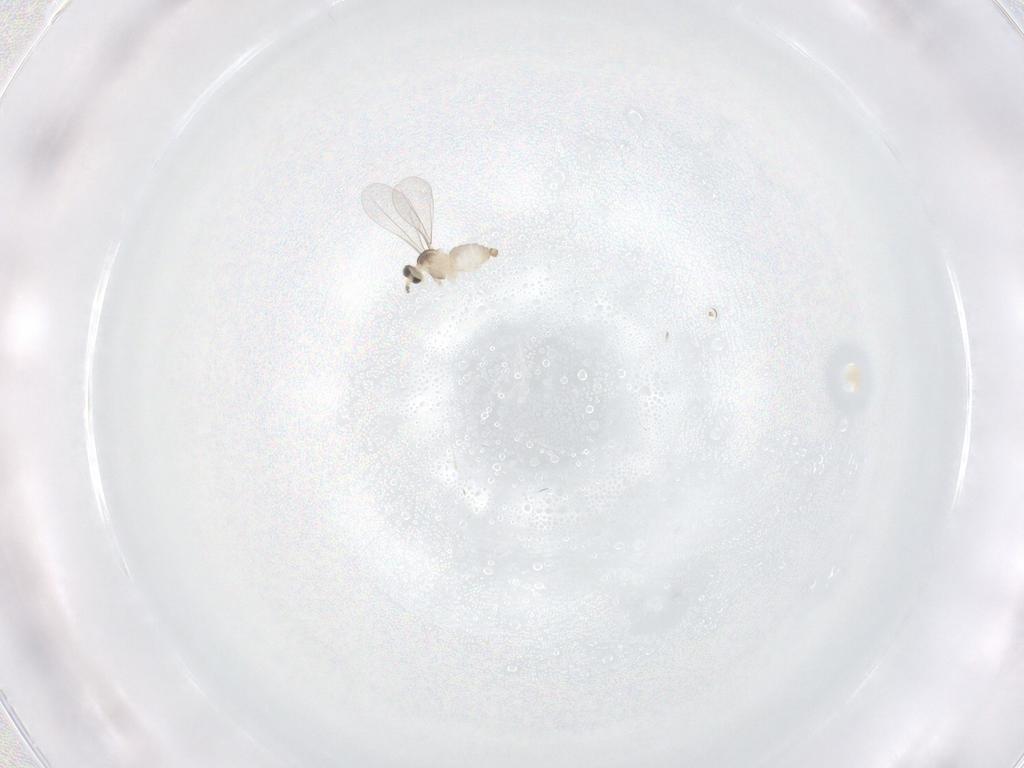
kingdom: Animalia
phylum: Arthropoda
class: Insecta
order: Diptera
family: Cecidomyiidae
